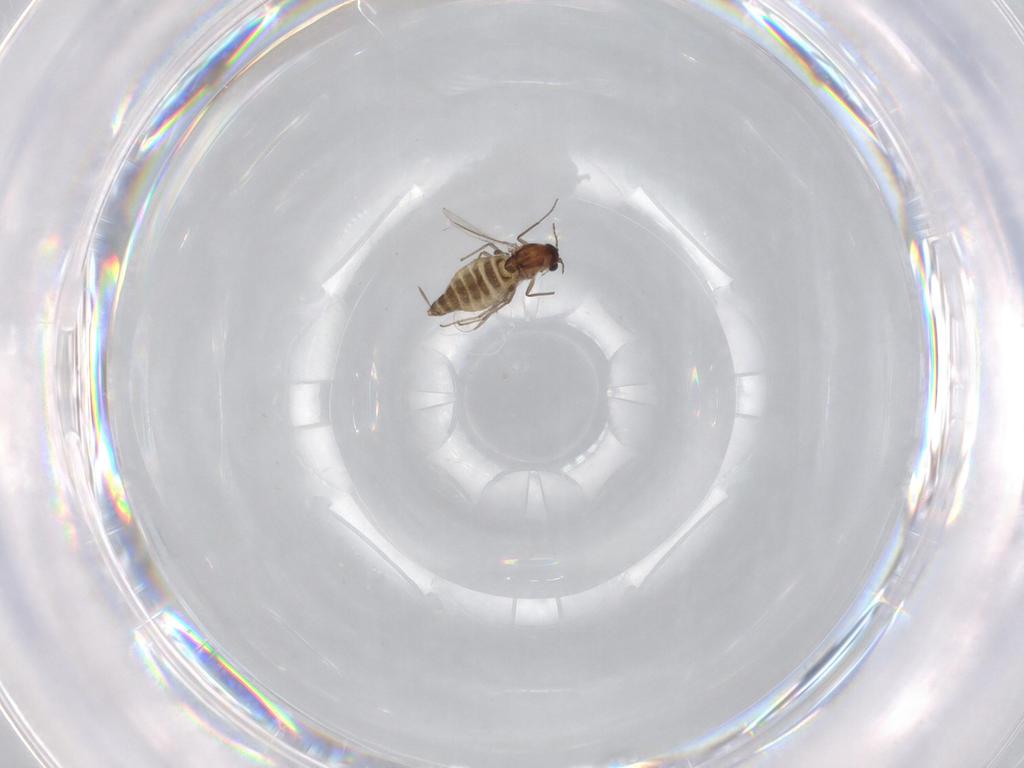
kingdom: Animalia
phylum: Arthropoda
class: Insecta
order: Diptera
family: Chironomidae
